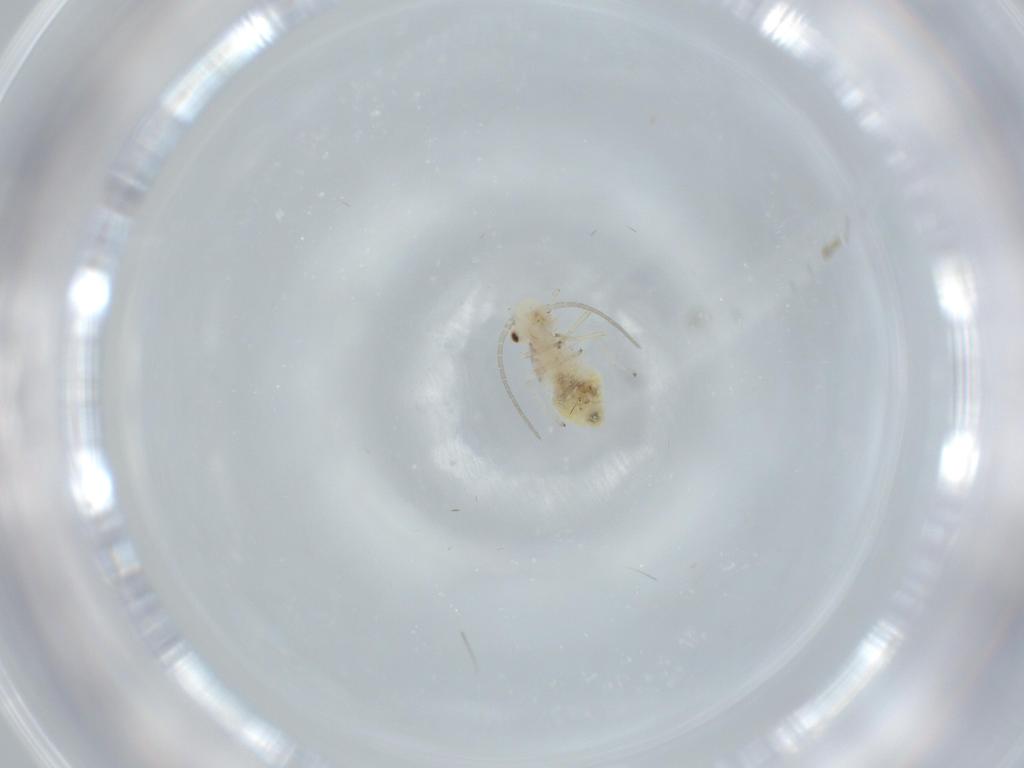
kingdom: Animalia
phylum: Arthropoda
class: Insecta
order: Psocodea
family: Caeciliusidae
